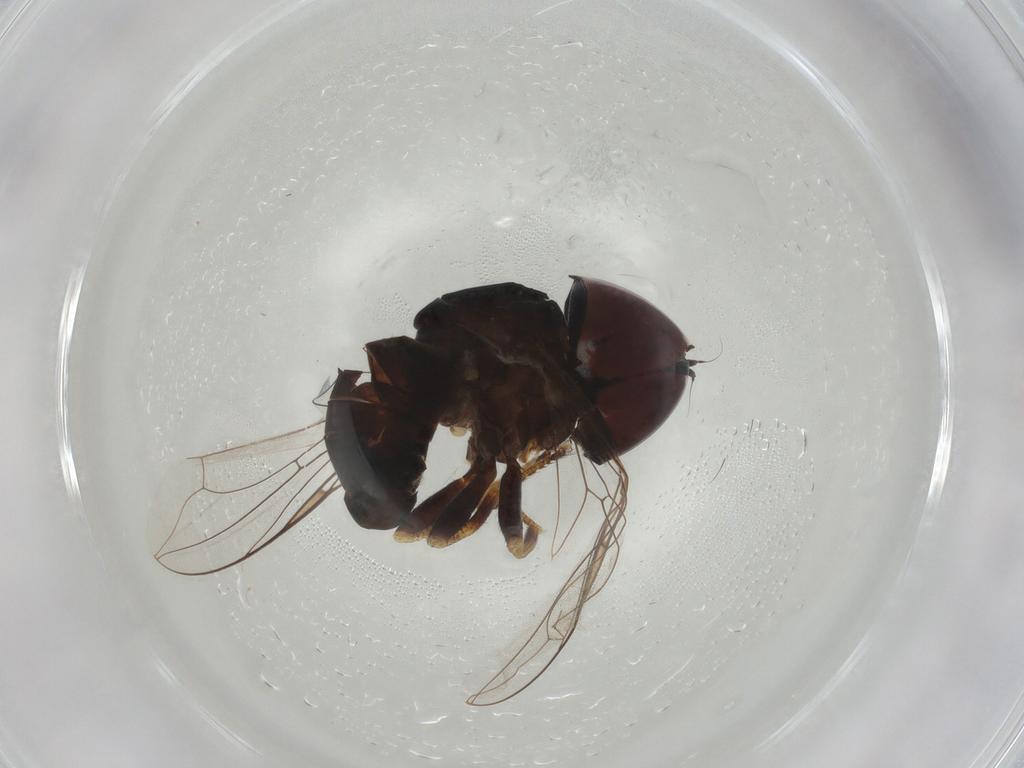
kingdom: Animalia
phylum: Arthropoda
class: Insecta
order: Diptera
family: Pipunculidae
